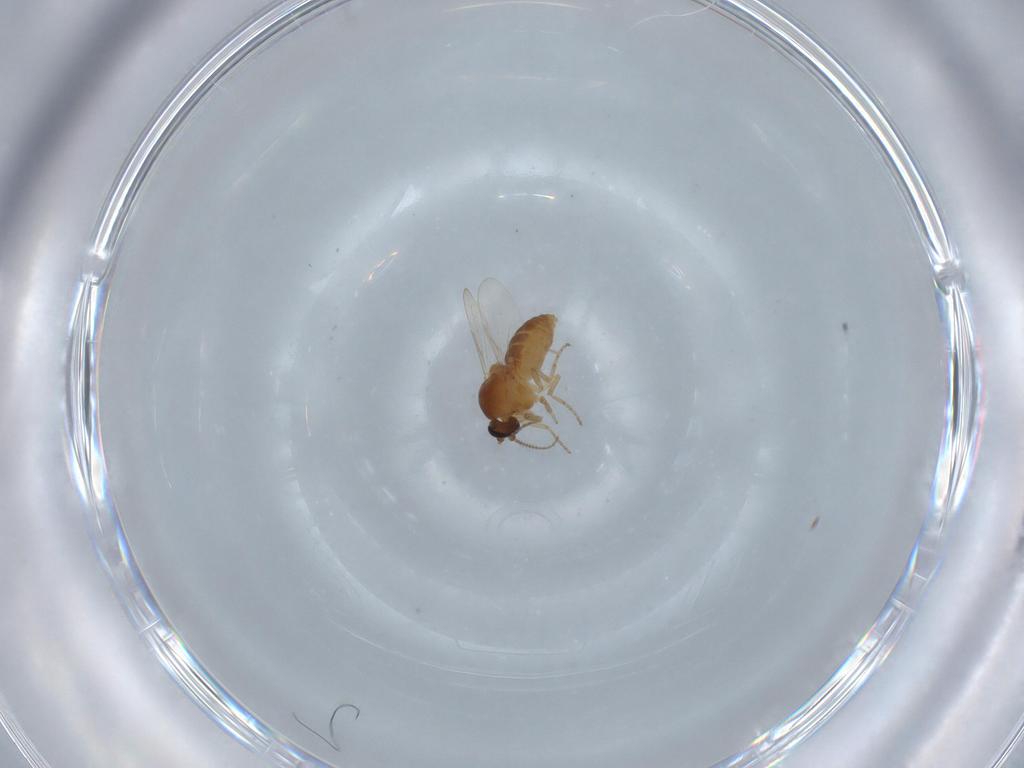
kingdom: Animalia
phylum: Arthropoda
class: Insecta
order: Diptera
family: Ceratopogonidae
